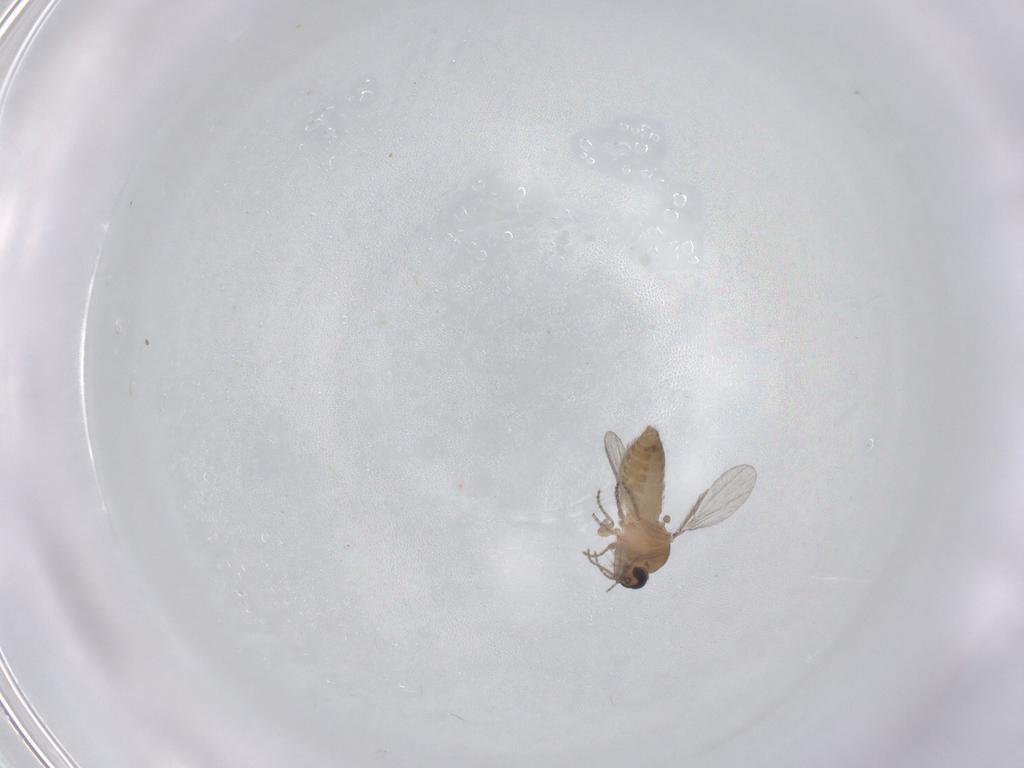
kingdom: Animalia
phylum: Arthropoda
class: Insecta
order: Diptera
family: Ceratopogonidae
